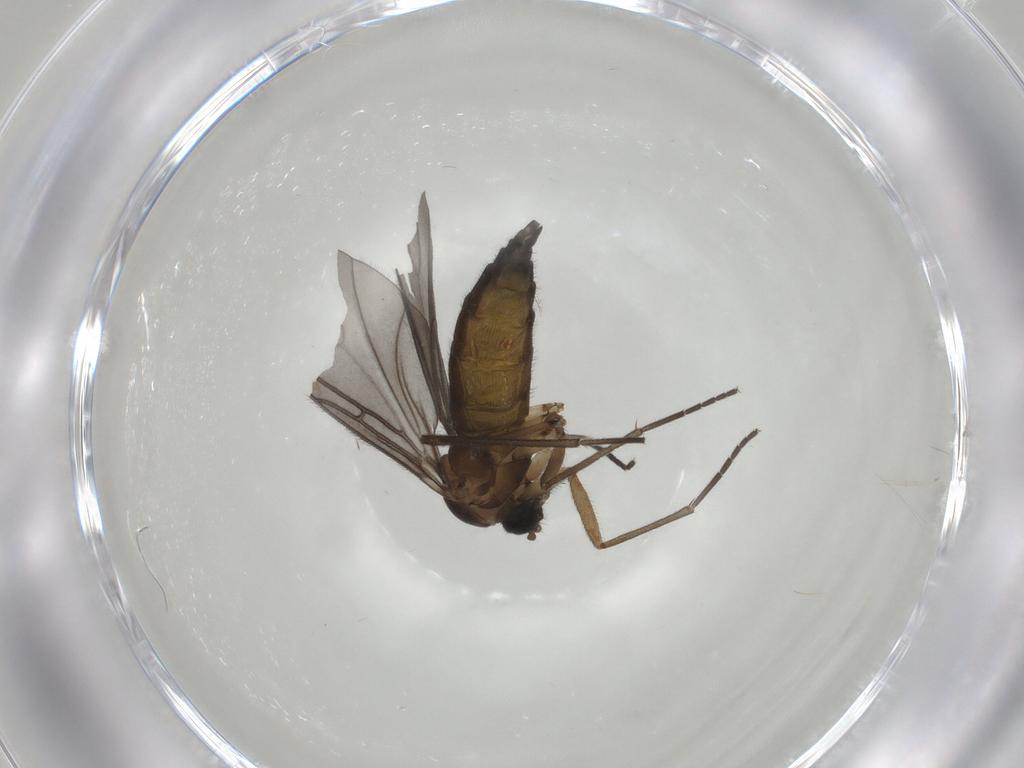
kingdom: Animalia
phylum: Arthropoda
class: Insecta
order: Diptera
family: Sciaridae
